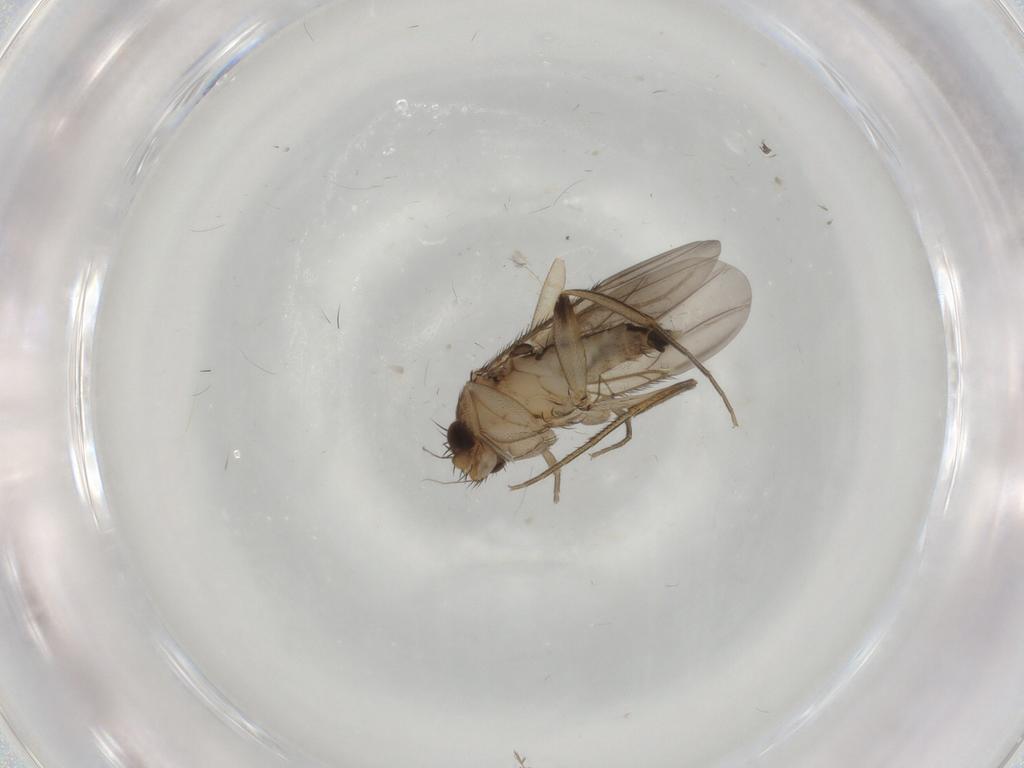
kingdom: Animalia
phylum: Arthropoda
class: Insecta
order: Diptera
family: Phoridae
